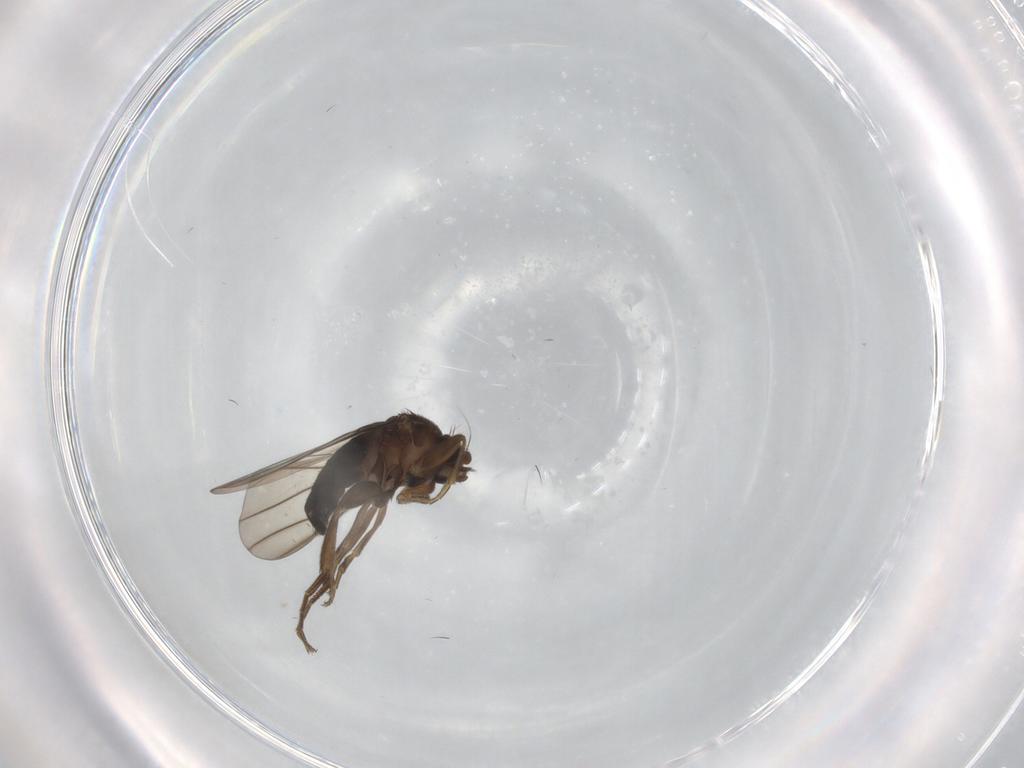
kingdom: Animalia
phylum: Arthropoda
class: Insecta
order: Diptera
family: Phoridae
